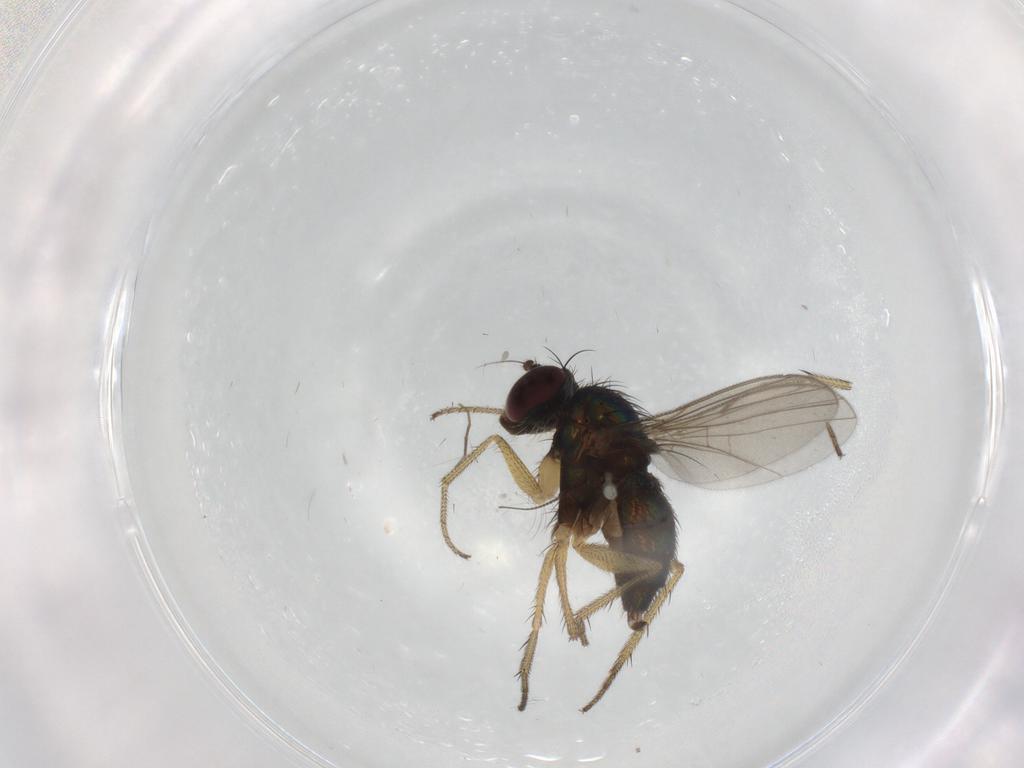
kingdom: Animalia
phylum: Arthropoda
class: Insecta
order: Diptera
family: Chironomidae
